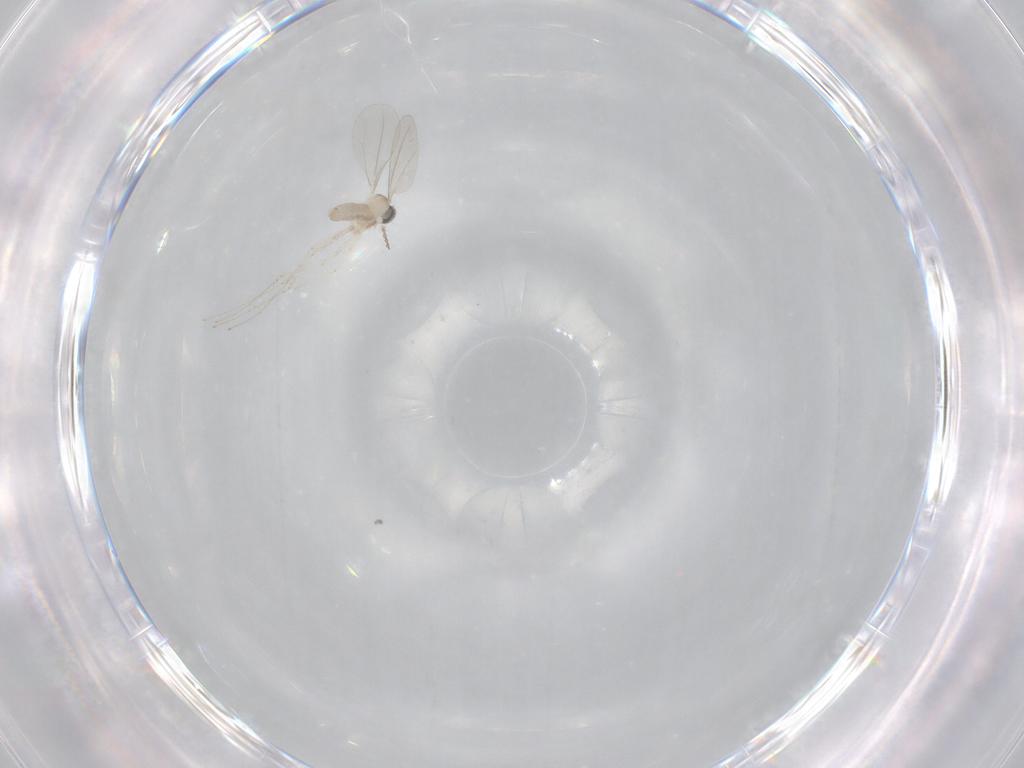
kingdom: Animalia
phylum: Arthropoda
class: Insecta
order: Diptera
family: Cecidomyiidae
